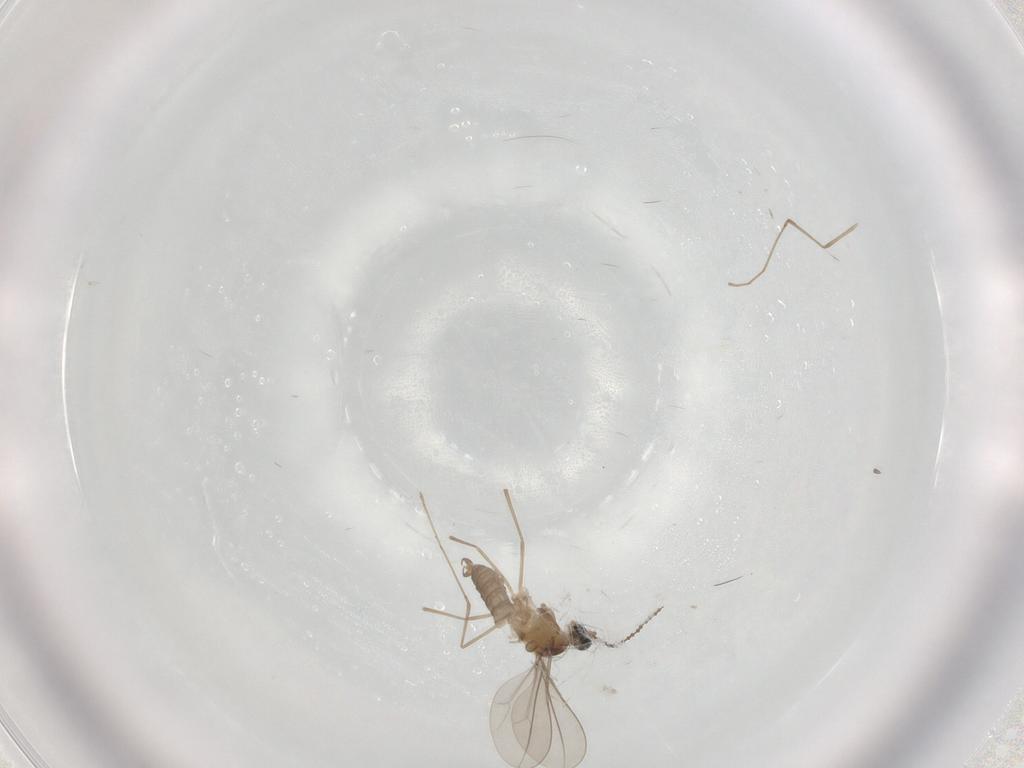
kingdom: Animalia
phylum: Arthropoda
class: Insecta
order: Diptera
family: Cecidomyiidae
